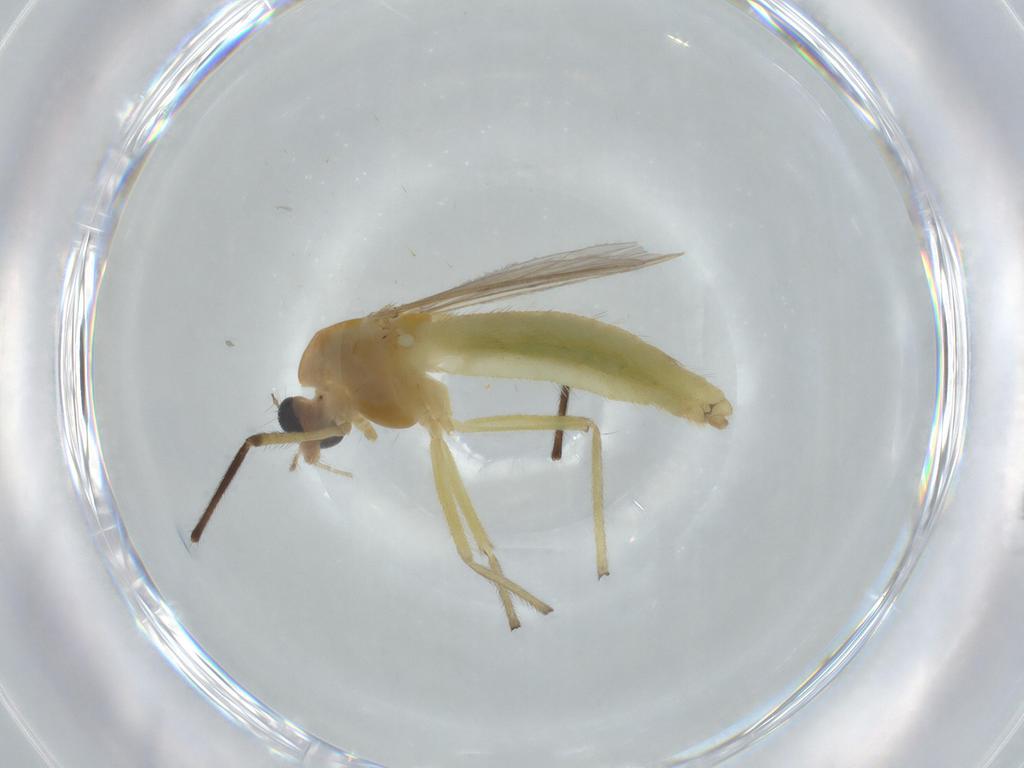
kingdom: Animalia
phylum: Arthropoda
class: Insecta
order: Diptera
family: Chironomidae
